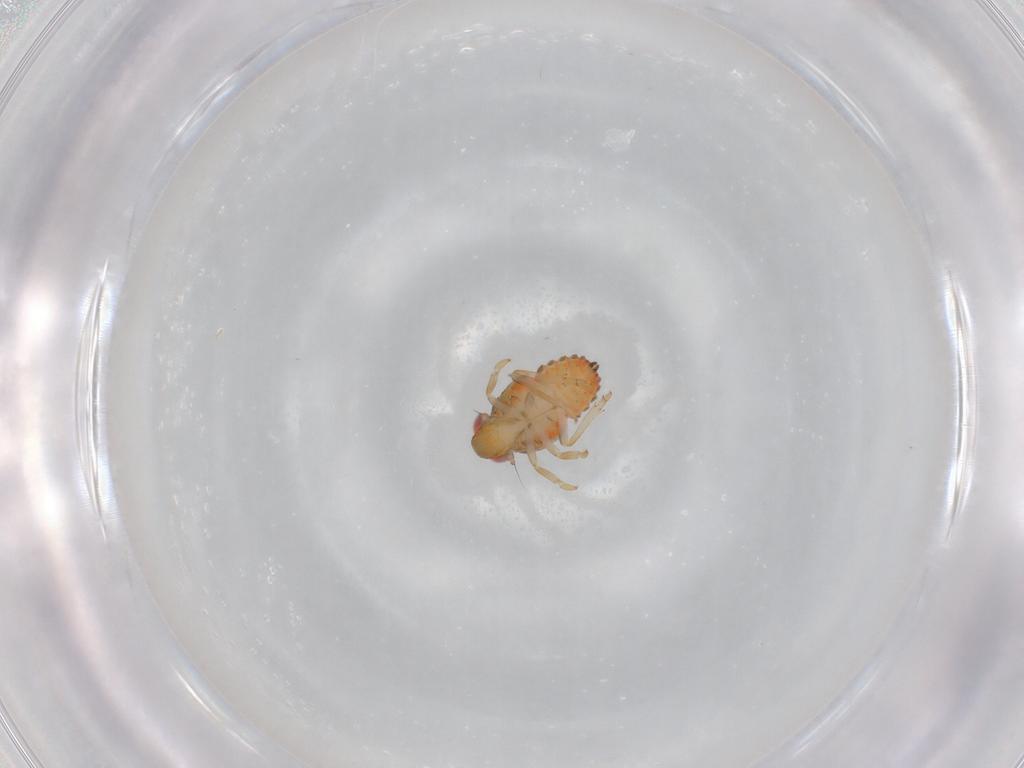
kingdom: Animalia
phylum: Arthropoda
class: Insecta
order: Hemiptera
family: Issidae
